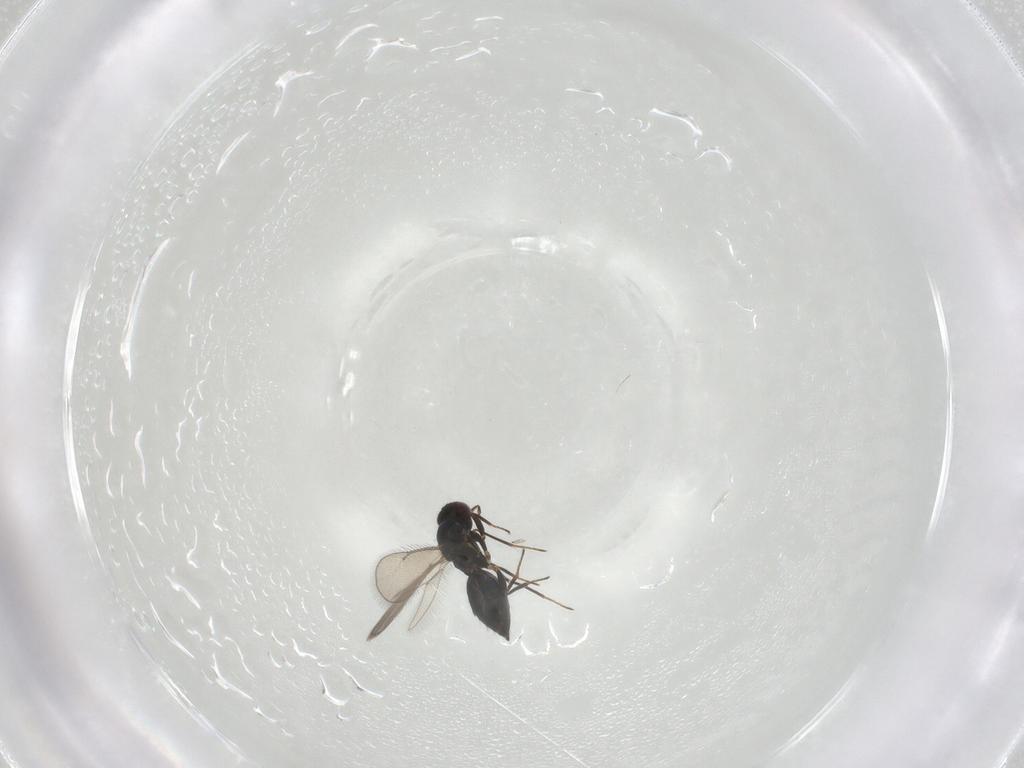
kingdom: Animalia
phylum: Arthropoda
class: Insecta
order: Hymenoptera
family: Eulophidae
